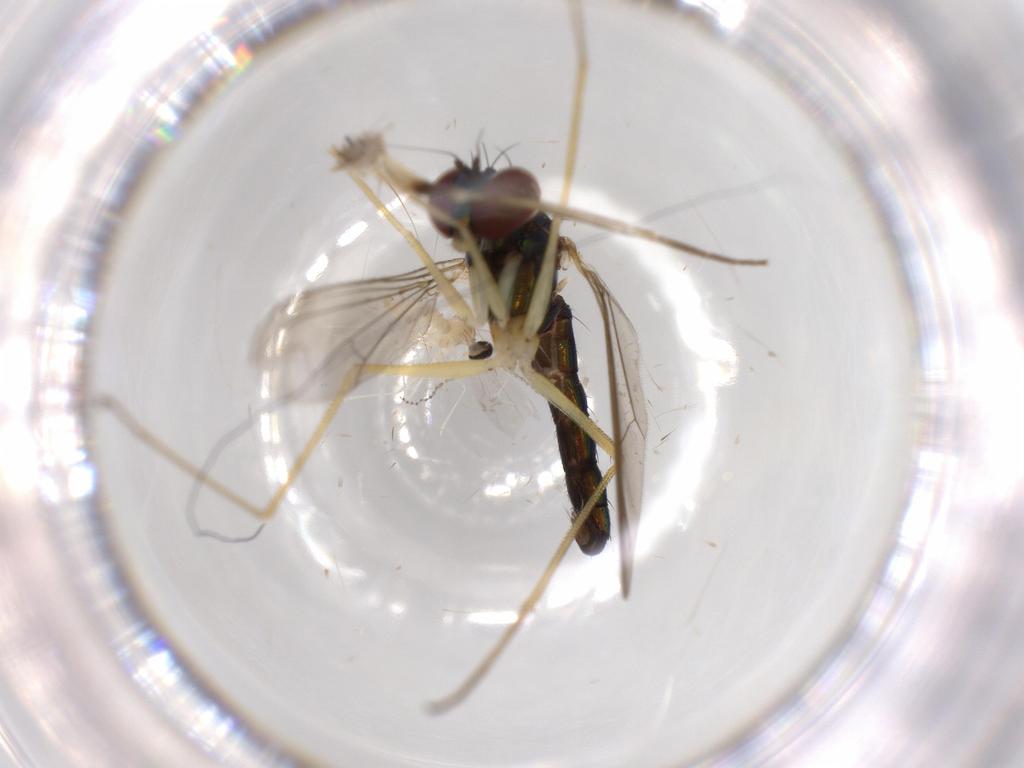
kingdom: Animalia
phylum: Arthropoda
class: Insecta
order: Diptera
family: Dolichopodidae
